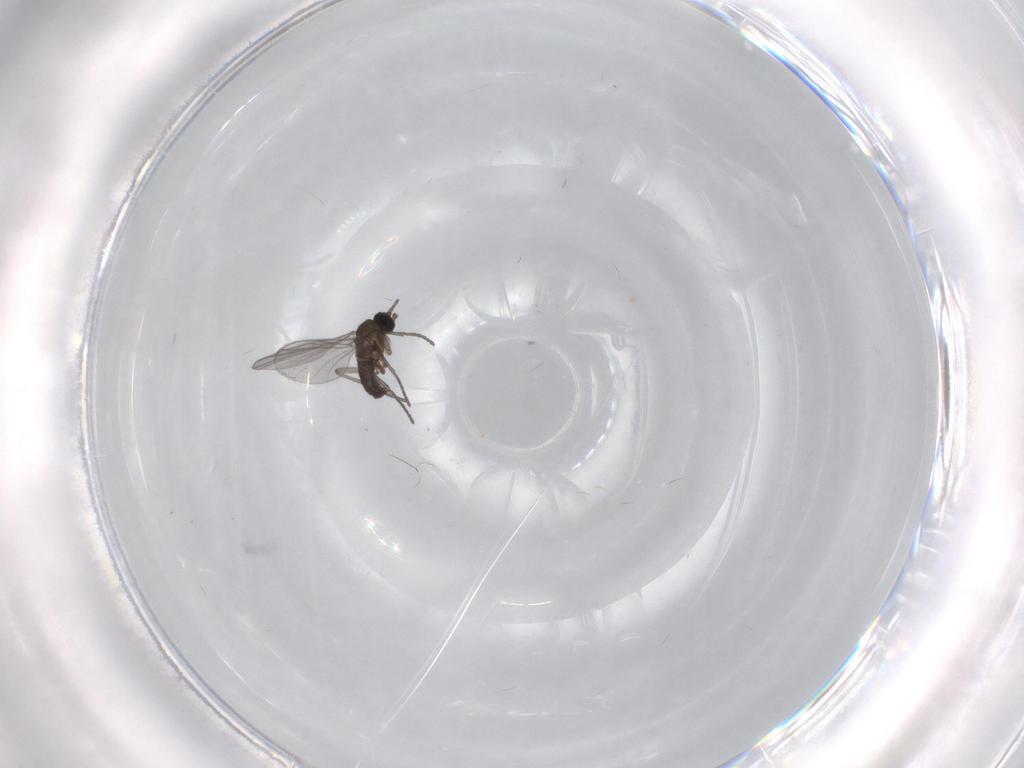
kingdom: Animalia
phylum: Arthropoda
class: Insecta
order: Diptera
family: Sciaridae
